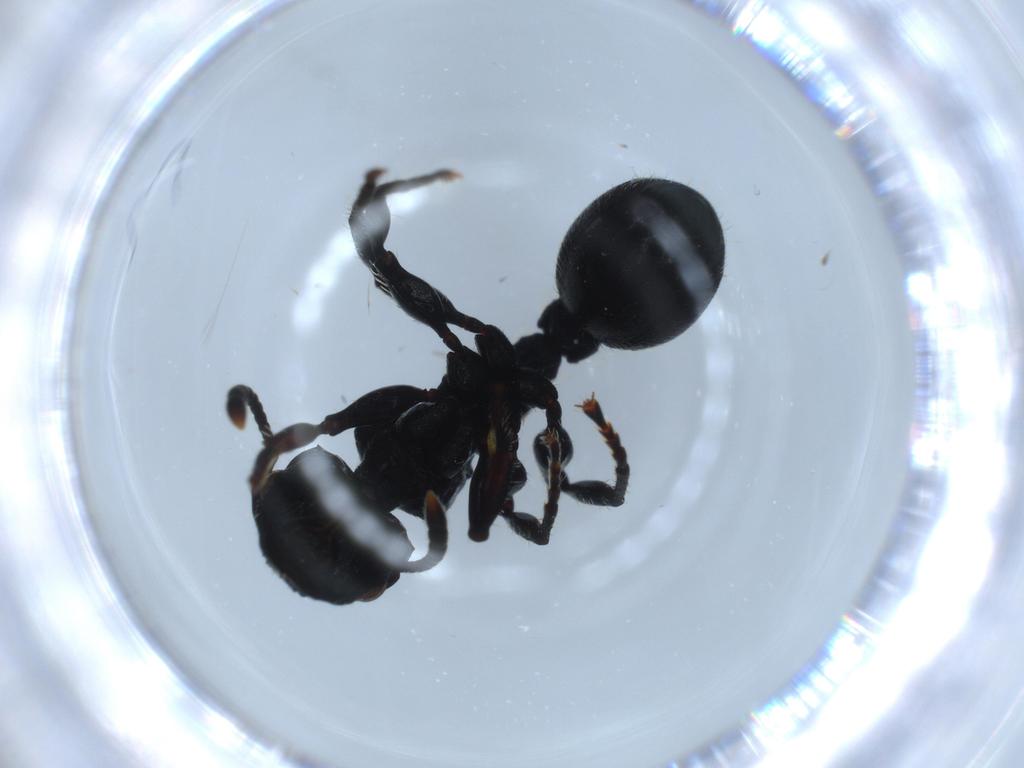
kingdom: Animalia
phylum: Arthropoda
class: Insecta
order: Hymenoptera
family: Formicidae
